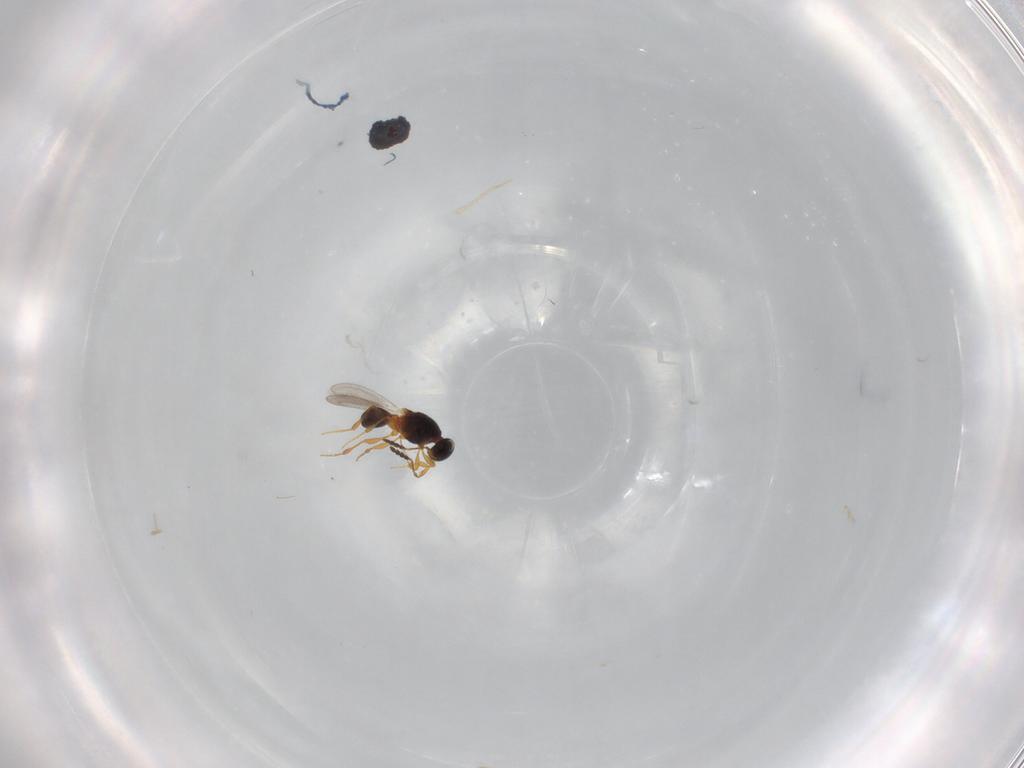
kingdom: Animalia
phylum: Arthropoda
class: Insecta
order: Hymenoptera
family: Platygastridae
